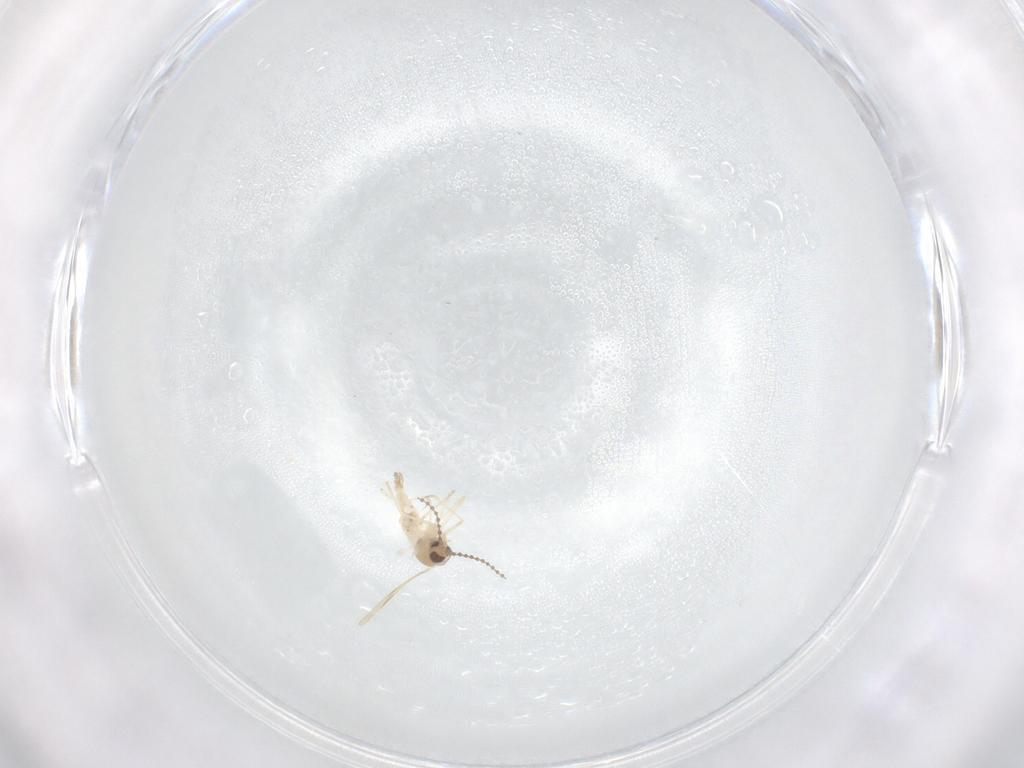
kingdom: Animalia
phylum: Arthropoda
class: Insecta
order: Diptera
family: Cecidomyiidae
